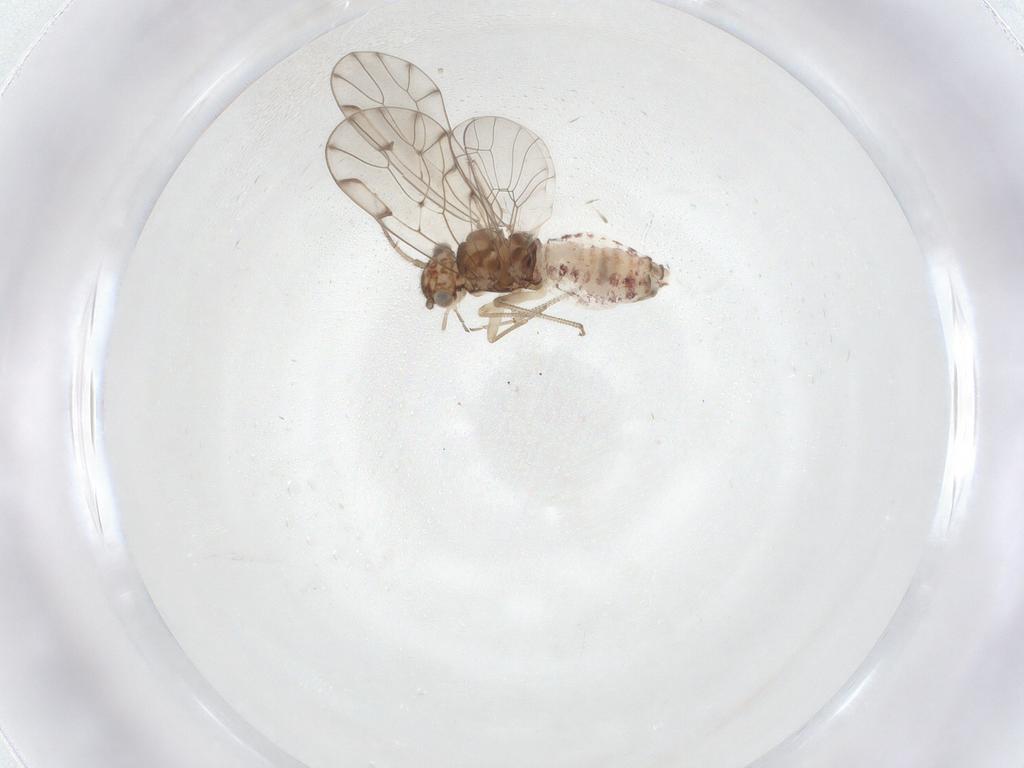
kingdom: Animalia
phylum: Arthropoda
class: Insecta
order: Psocodea
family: Ectopsocidae
